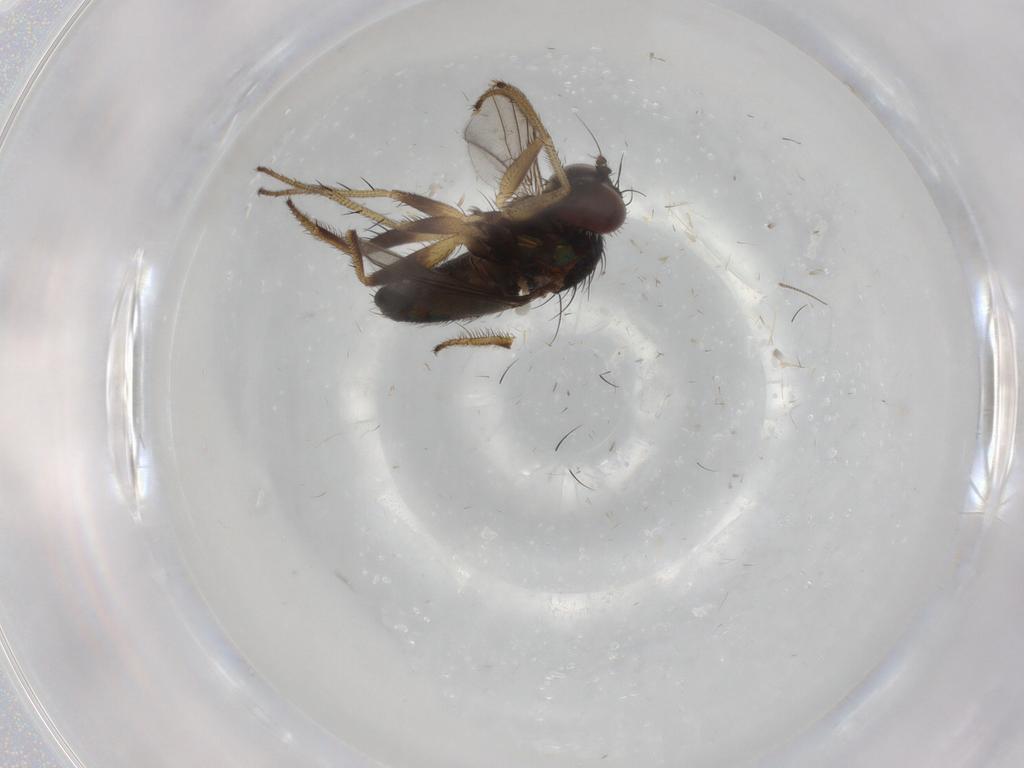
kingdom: Animalia
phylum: Arthropoda
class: Insecta
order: Diptera
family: Dolichopodidae
